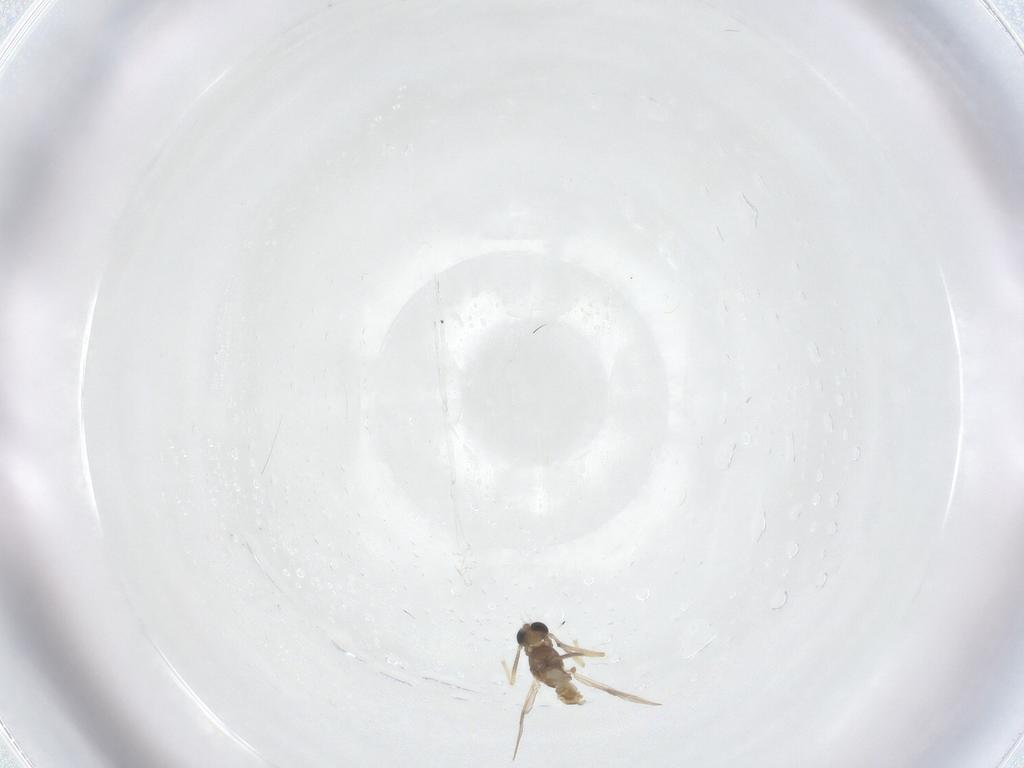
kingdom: Animalia
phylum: Arthropoda
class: Insecta
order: Diptera
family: Chironomidae
